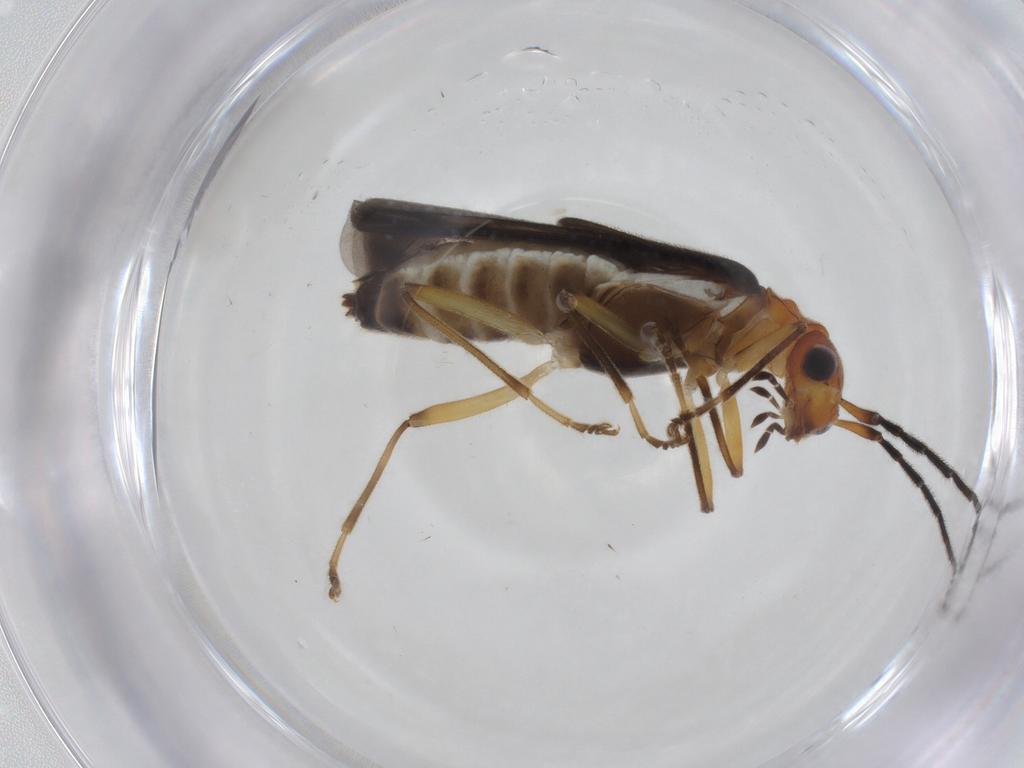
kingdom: Animalia
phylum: Arthropoda
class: Insecta
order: Coleoptera
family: Cantharidae
